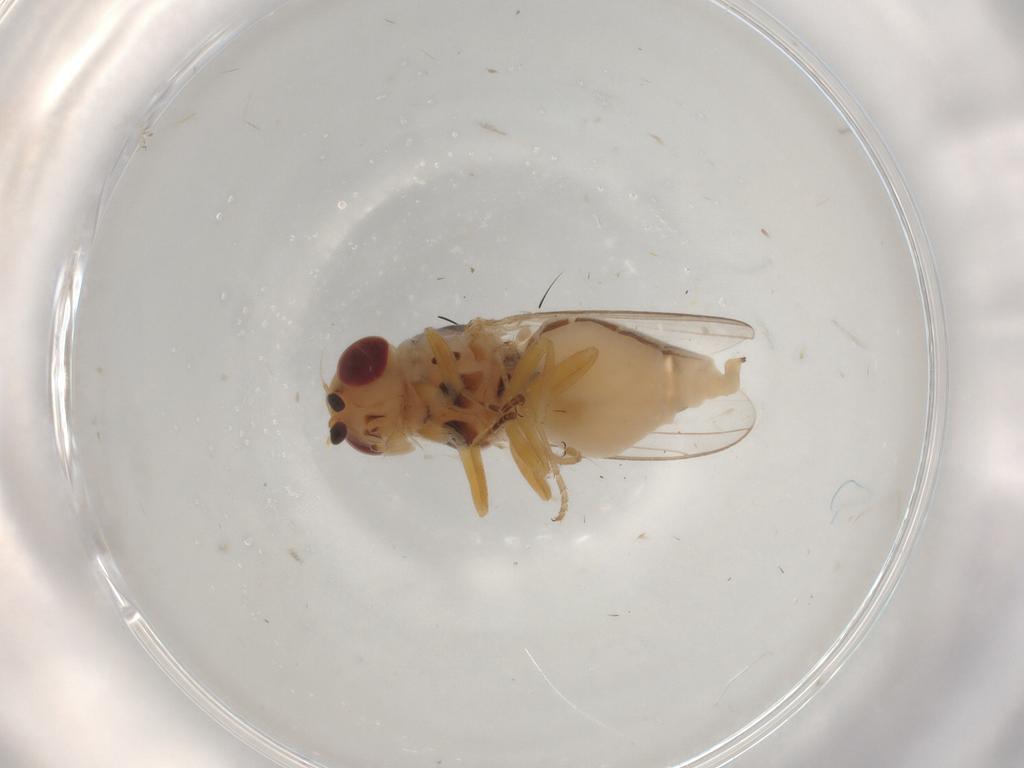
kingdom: Animalia
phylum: Arthropoda
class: Insecta
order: Diptera
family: Chloropidae
